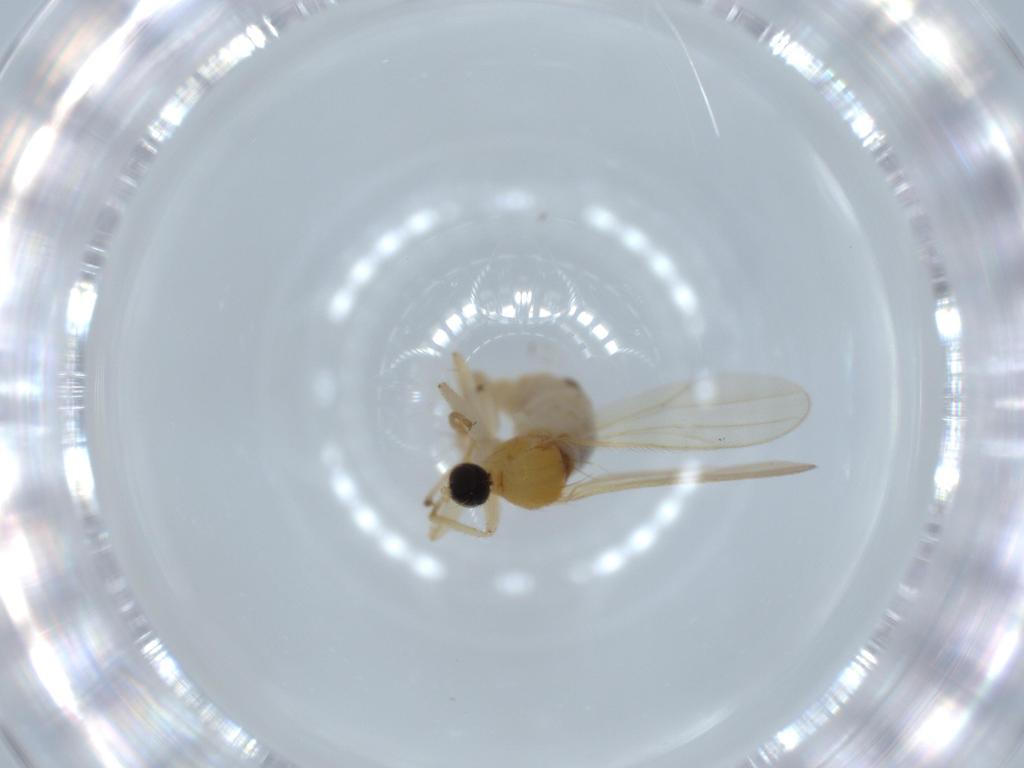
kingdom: Animalia
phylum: Arthropoda
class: Insecta
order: Diptera
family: Hybotidae
